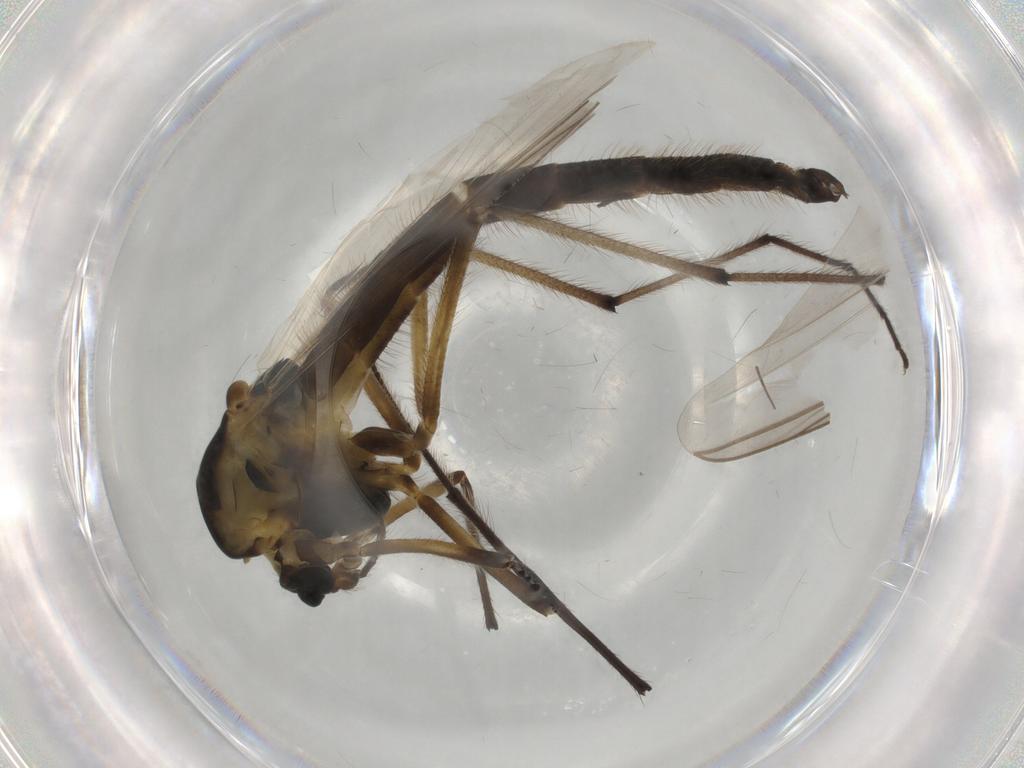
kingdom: Animalia
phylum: Arthropoda
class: Insecta
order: Diptera
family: Chironomidae
